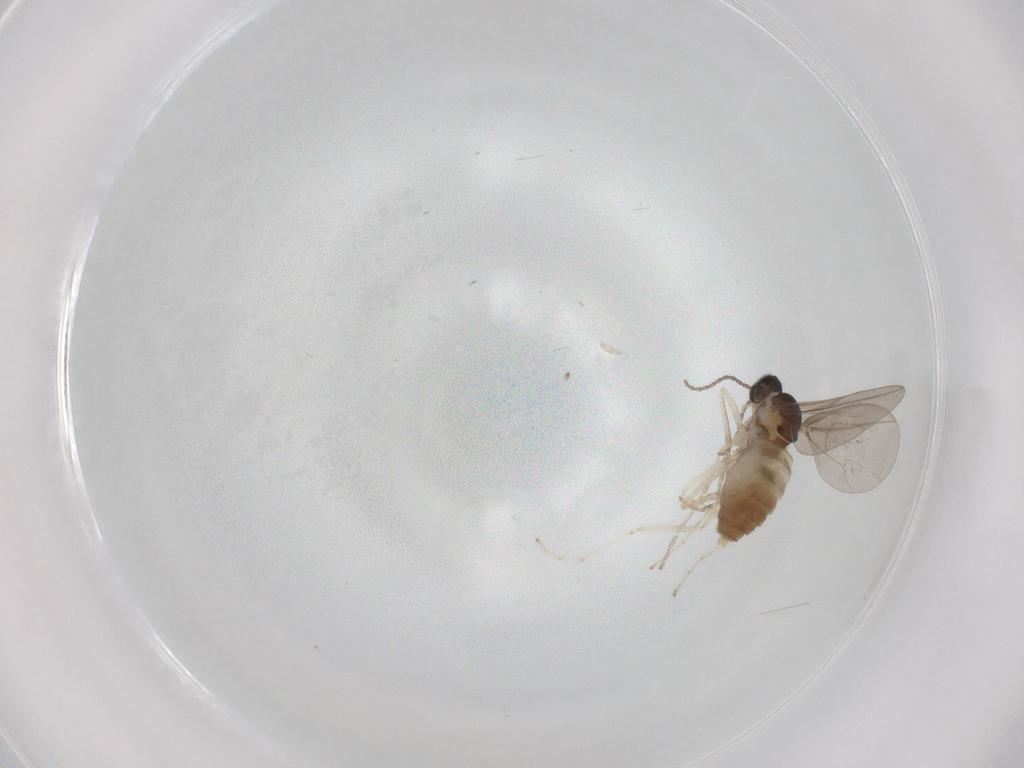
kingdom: Animalia
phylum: Arthropoda
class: Insecta
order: Diptera
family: Cecidomyiidae
